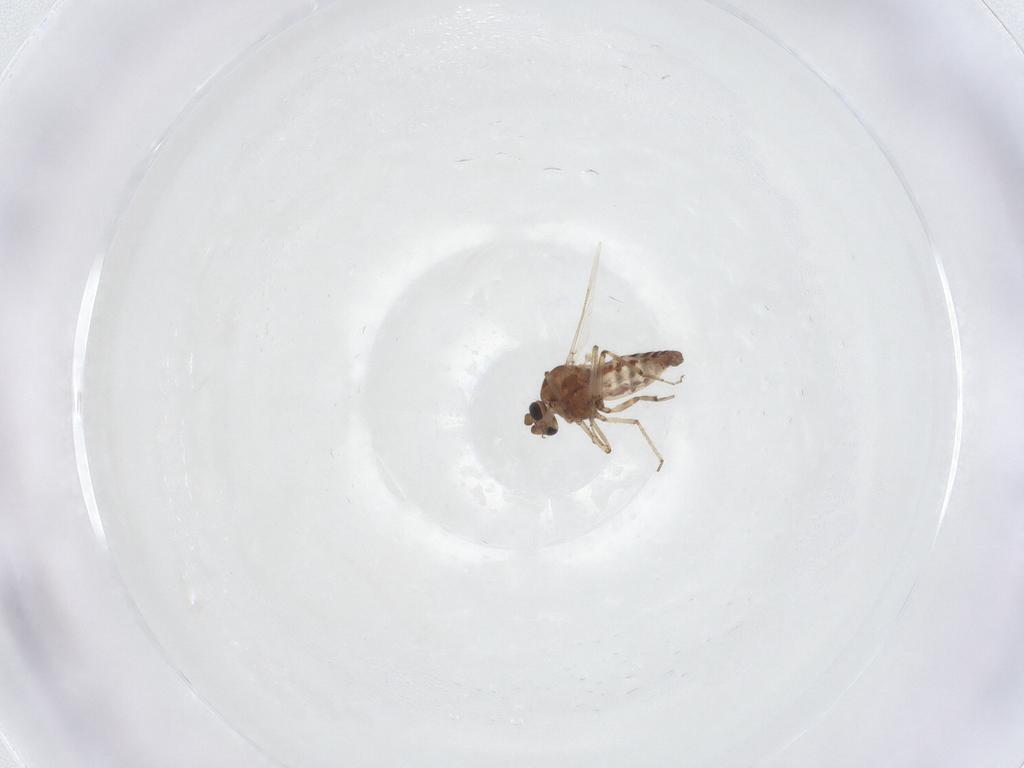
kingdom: Animalia
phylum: Arthropoda
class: Insecta
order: Diptera
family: Ceratopogonidae
